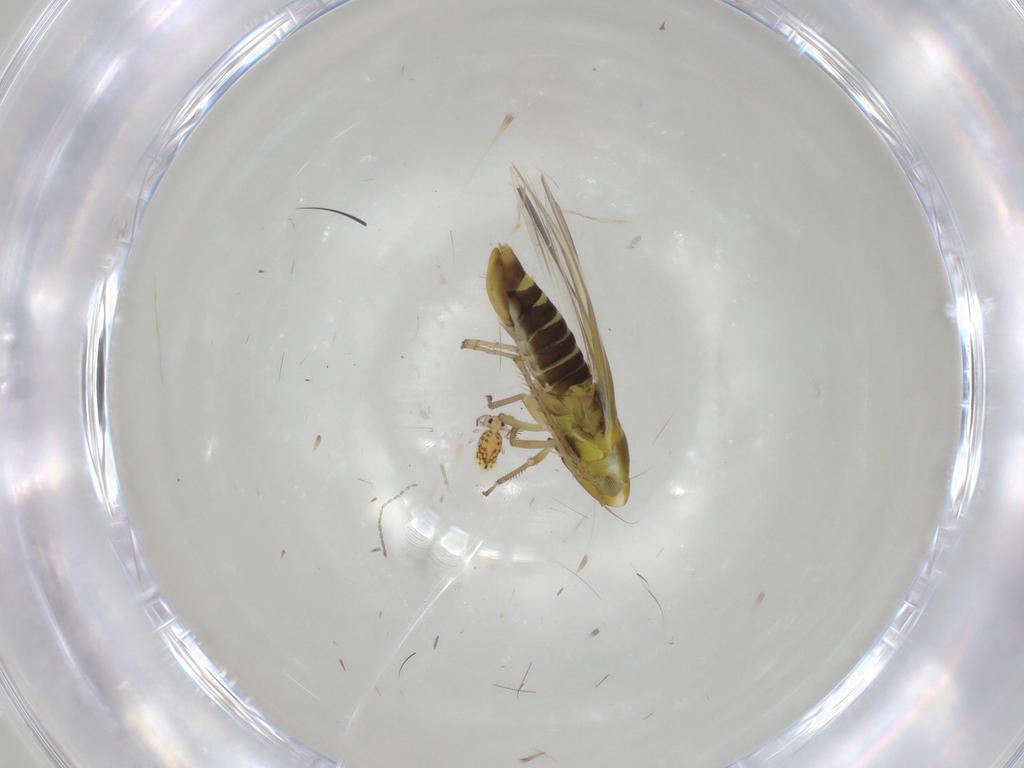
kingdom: Animalia
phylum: Arthropoda
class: Insecta
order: Hemiptera
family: Cicadellidae
